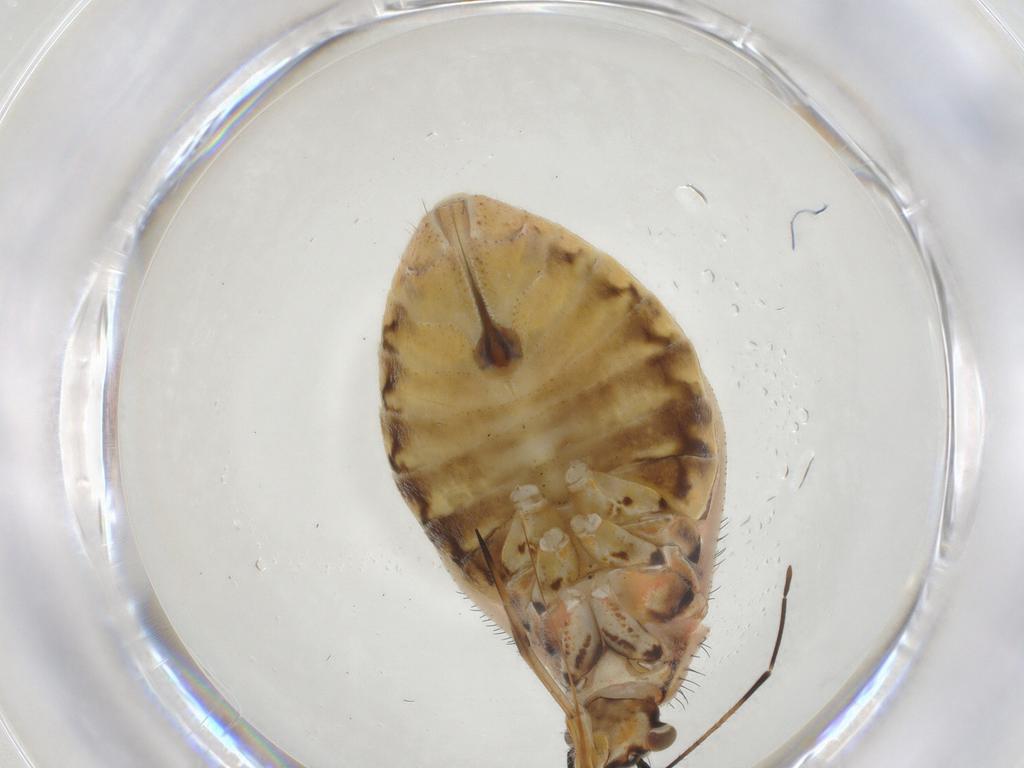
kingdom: Animalia
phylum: Arthropoda
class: Insecta
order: Hemiptera
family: Miridae
